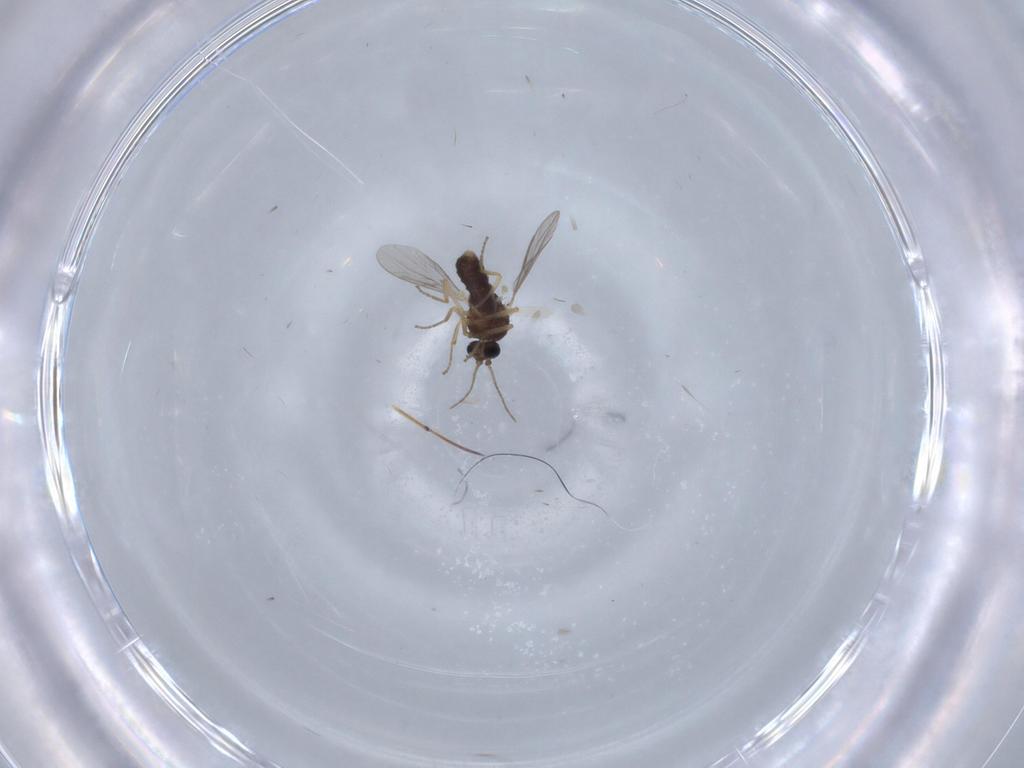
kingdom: Animalia
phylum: Arthropoda
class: Insecta
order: Diptera
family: Ceratopogonidae
